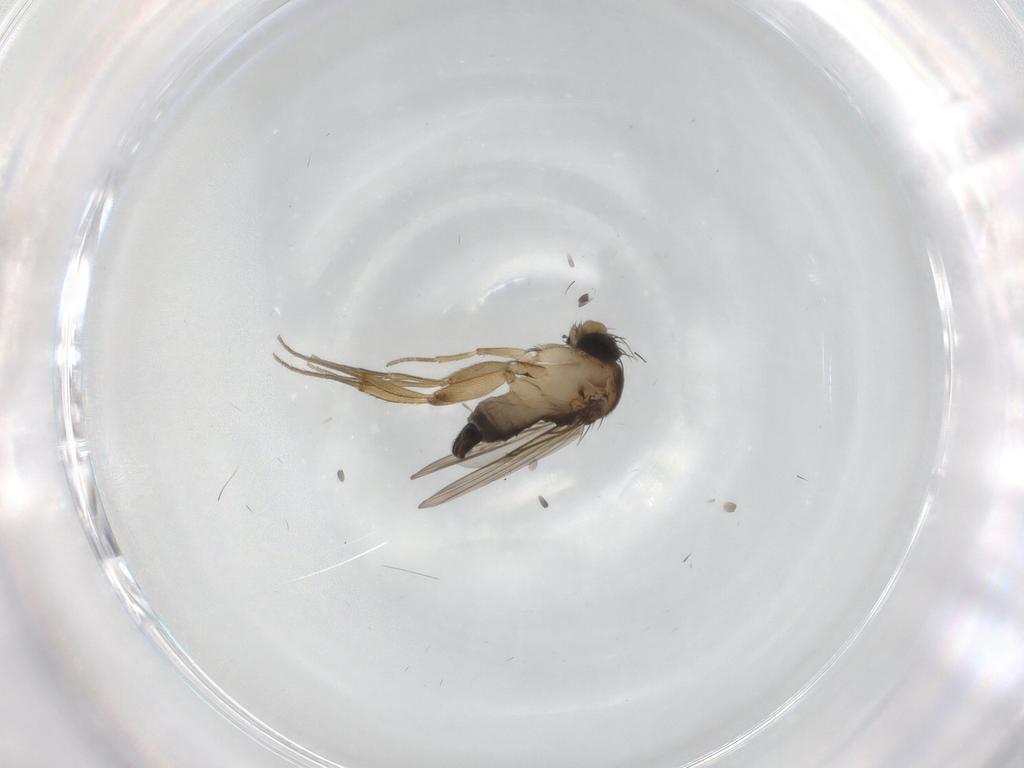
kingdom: Animalia
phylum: Arthropoda
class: Insecta
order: Diptera
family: Phoridae
